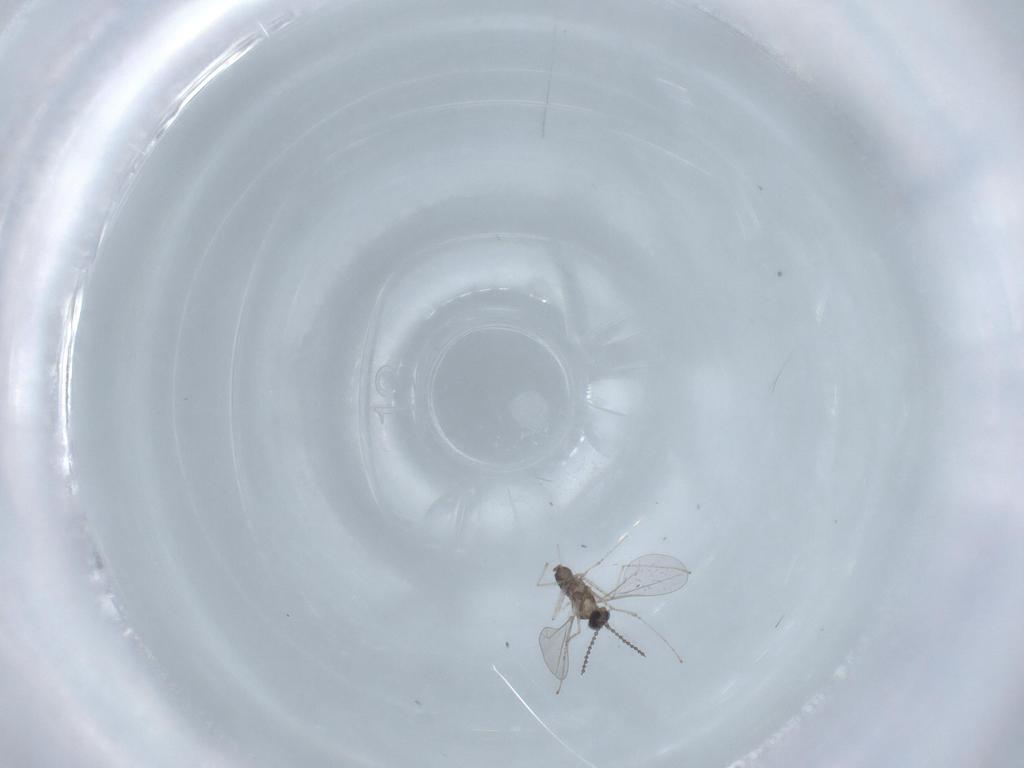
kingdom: Animalia
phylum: Arthropoda
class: Insecta
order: Diptera
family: Cecidomyiidae
